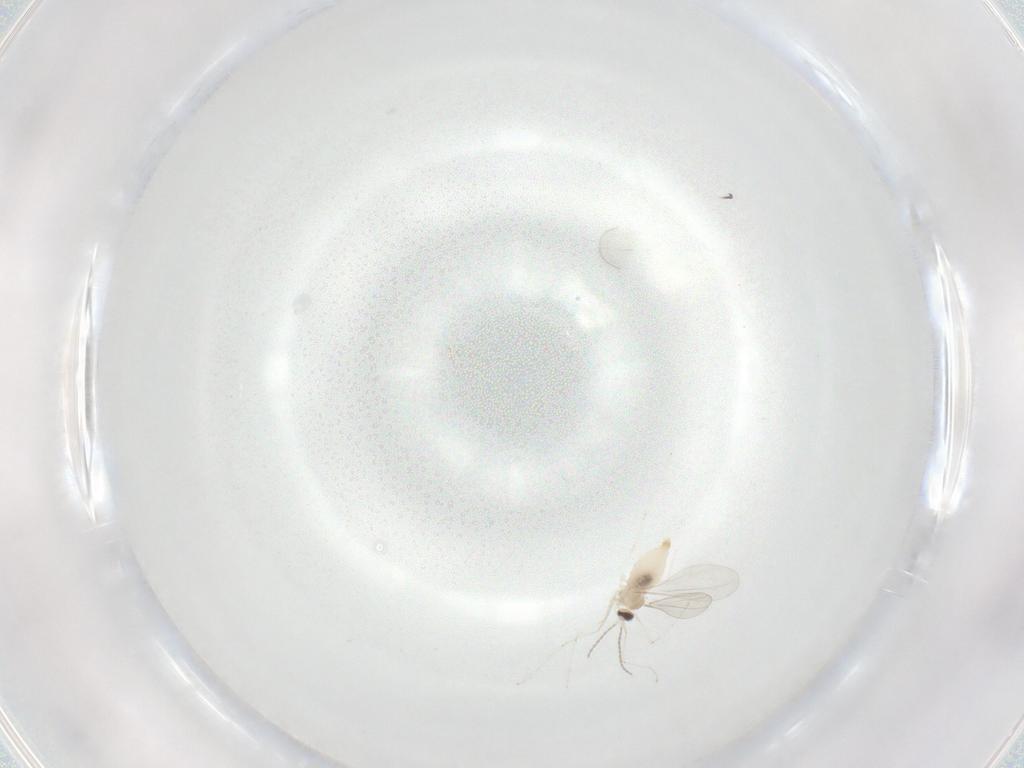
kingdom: Animalia
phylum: Arthropoda
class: Insecta
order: Diptera
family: Cecidomyiidae
